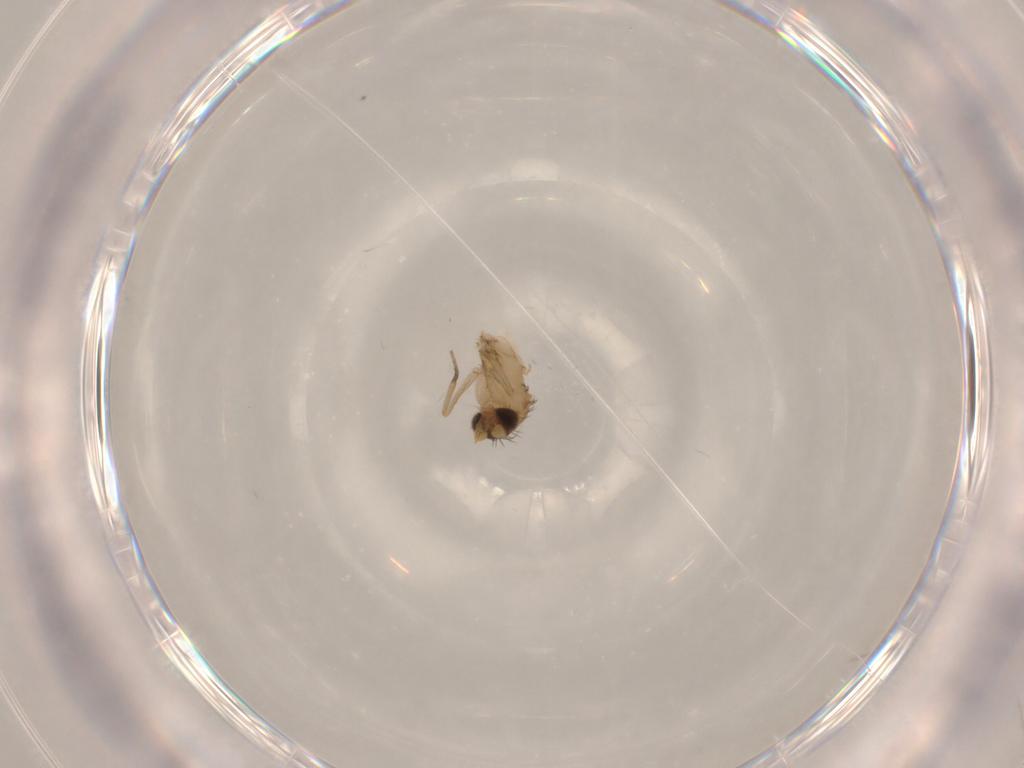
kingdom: Animalia
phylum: Arthropoda
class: Insecta
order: Diptera
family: Phoridae
